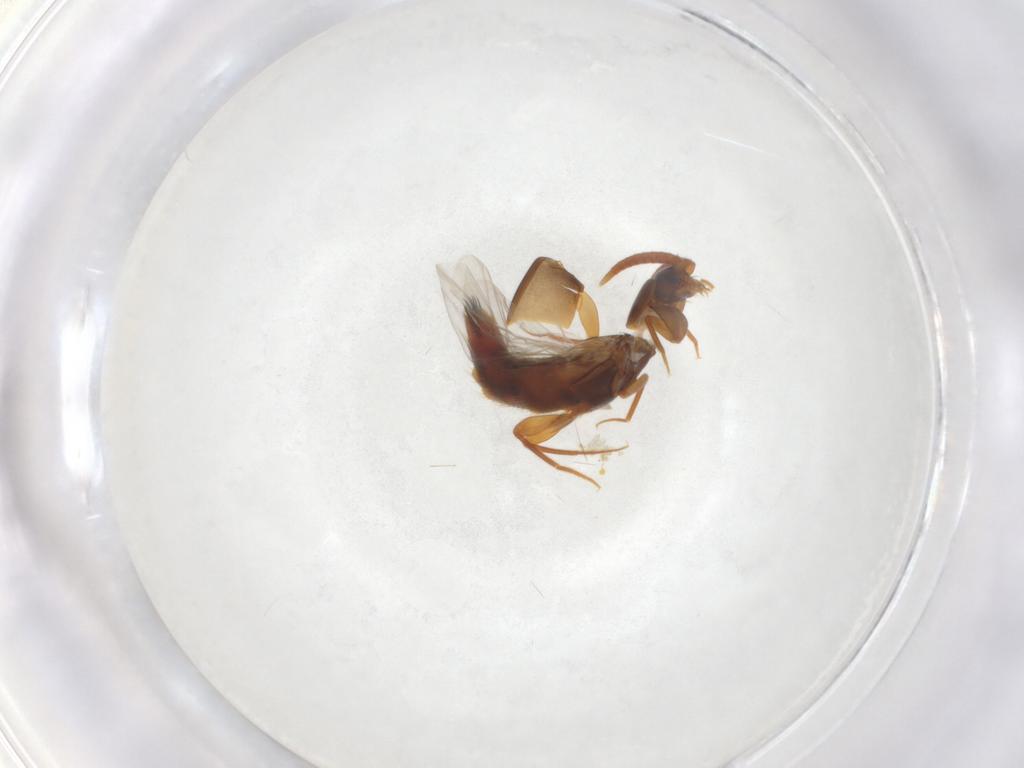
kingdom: Animalia
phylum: Arthropoda
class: Insecta
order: Coleoptera
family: Staphylinidae
